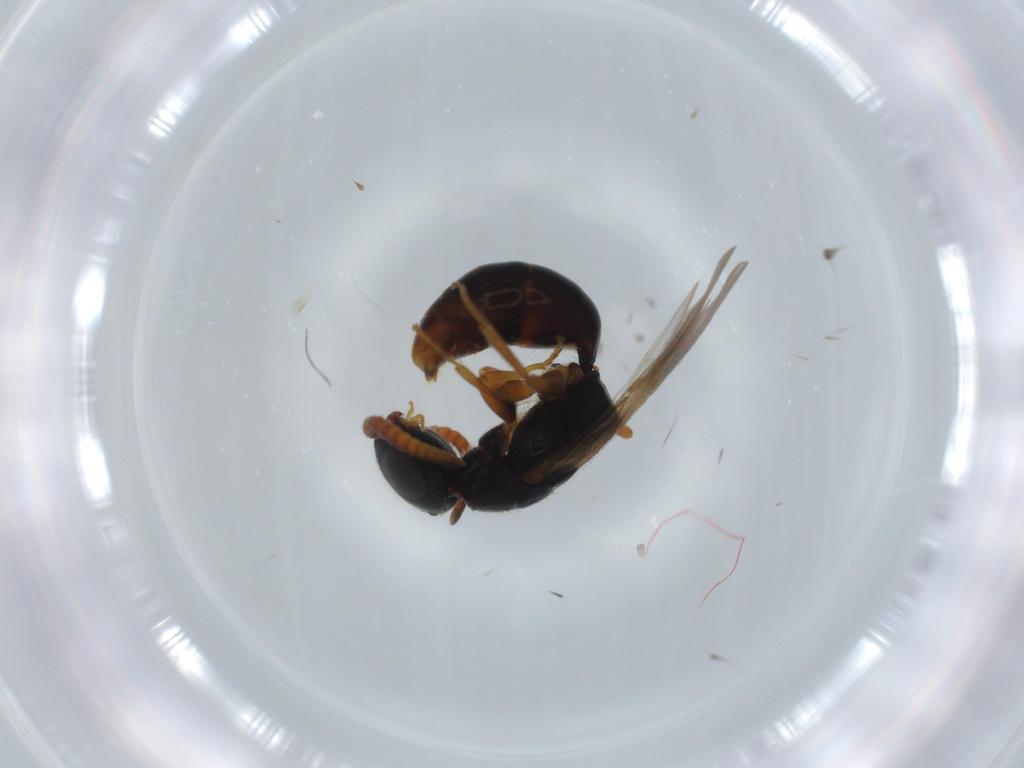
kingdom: Animalia
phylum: Arthropoda
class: Insecta
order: Hymenoptera
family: Bethylidae
